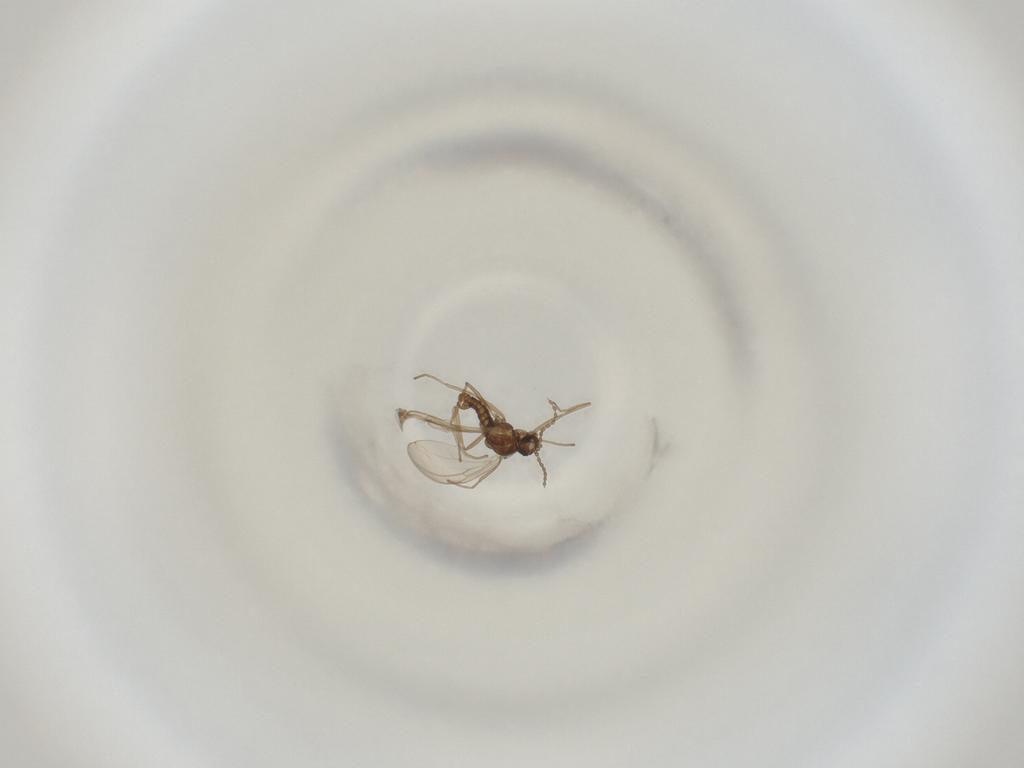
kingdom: Animalia
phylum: Arthropoda
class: Insecta
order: Diptera
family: Cecidomyiidae
